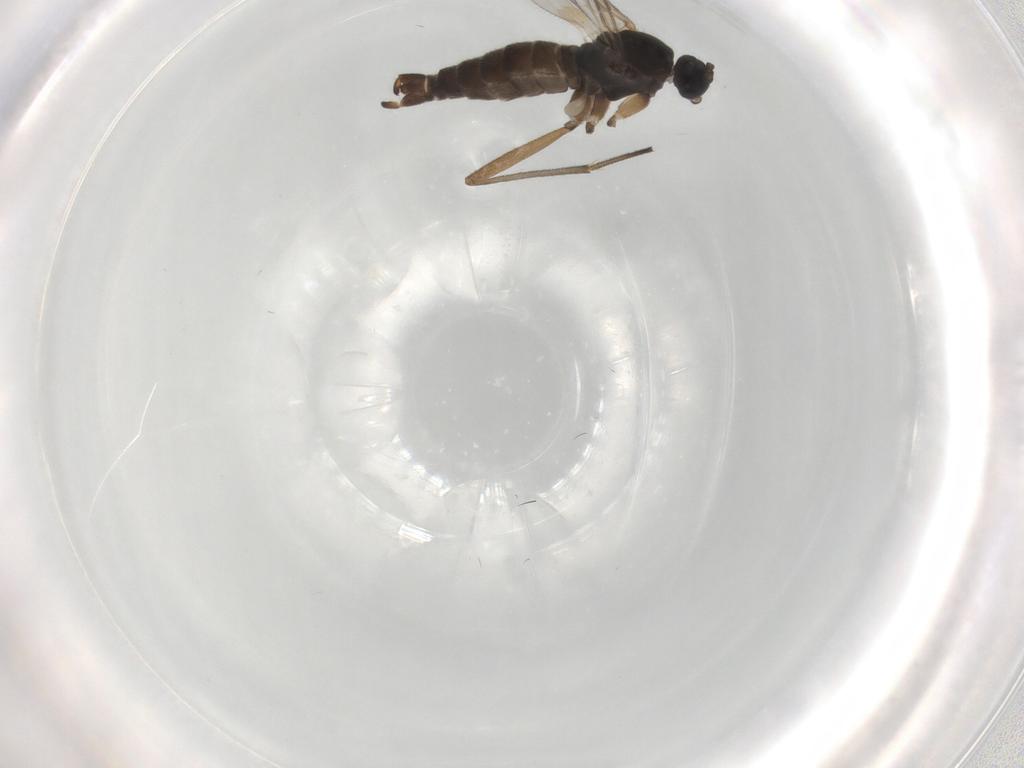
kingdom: Animalia
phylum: Arthropoda
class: Insecta
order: Diptera
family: Sciaridae
